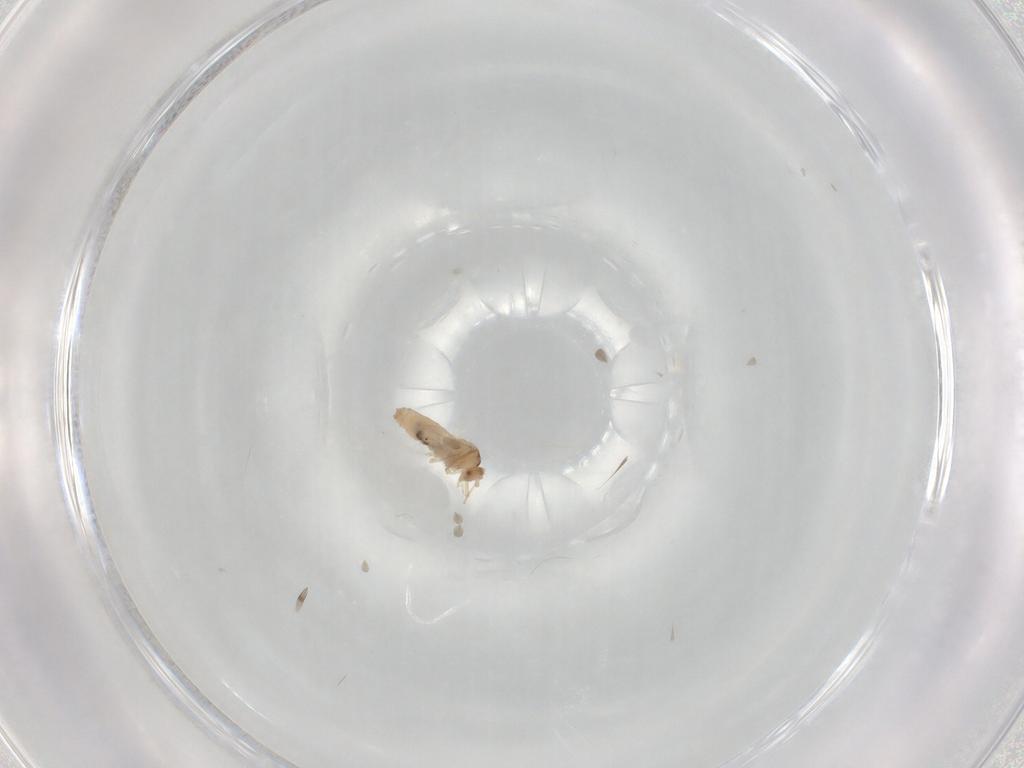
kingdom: Animalia
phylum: Arthropoda
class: Insecta
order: Diptera
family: Cecidomyiidae
